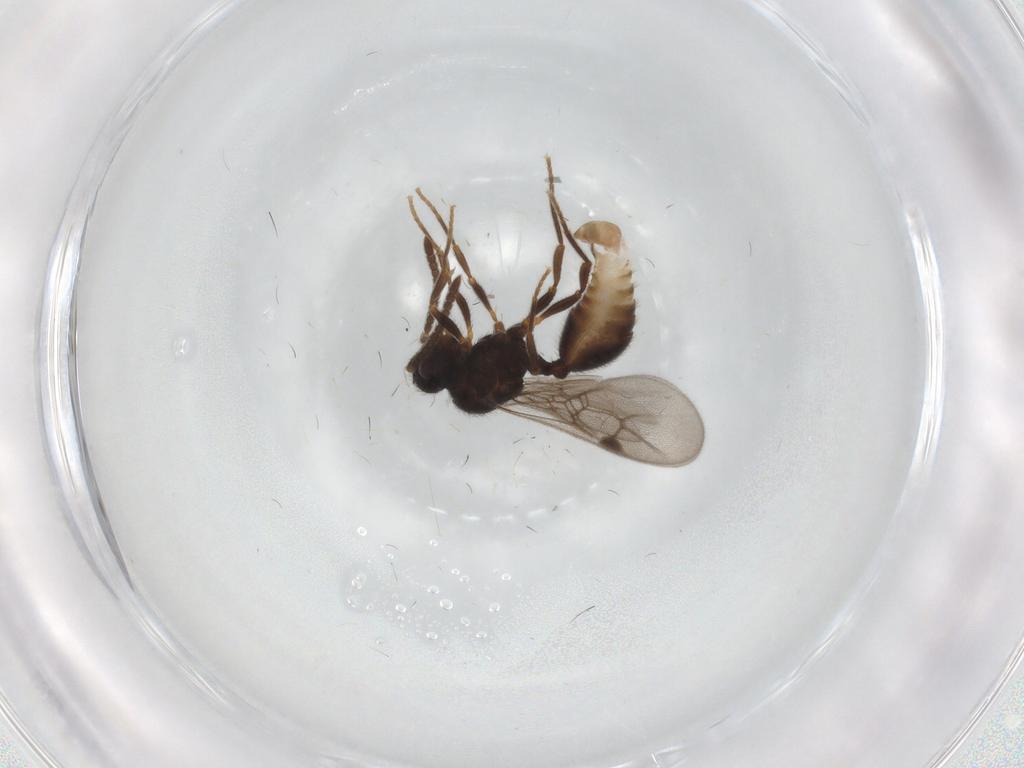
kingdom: Animalia
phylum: Arthropoda
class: Insecta
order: Hymenoptera
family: Formicidae
